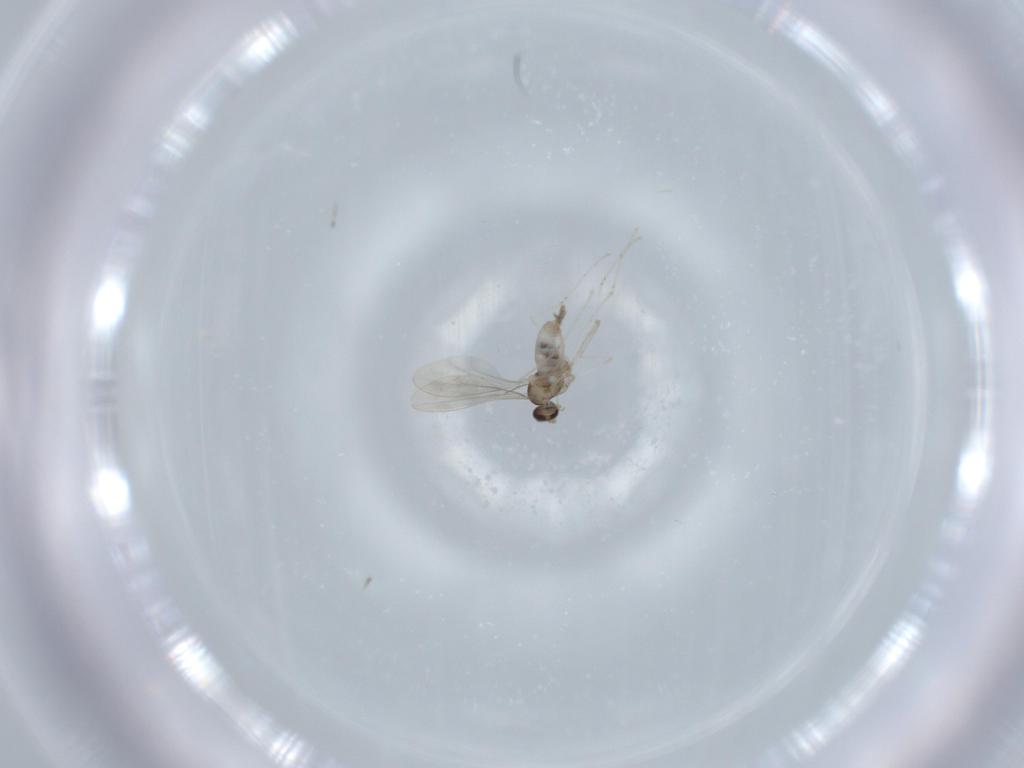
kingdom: Animalia
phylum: Arthropoda
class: Insecta
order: Diptera
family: Cecidomyiidae
